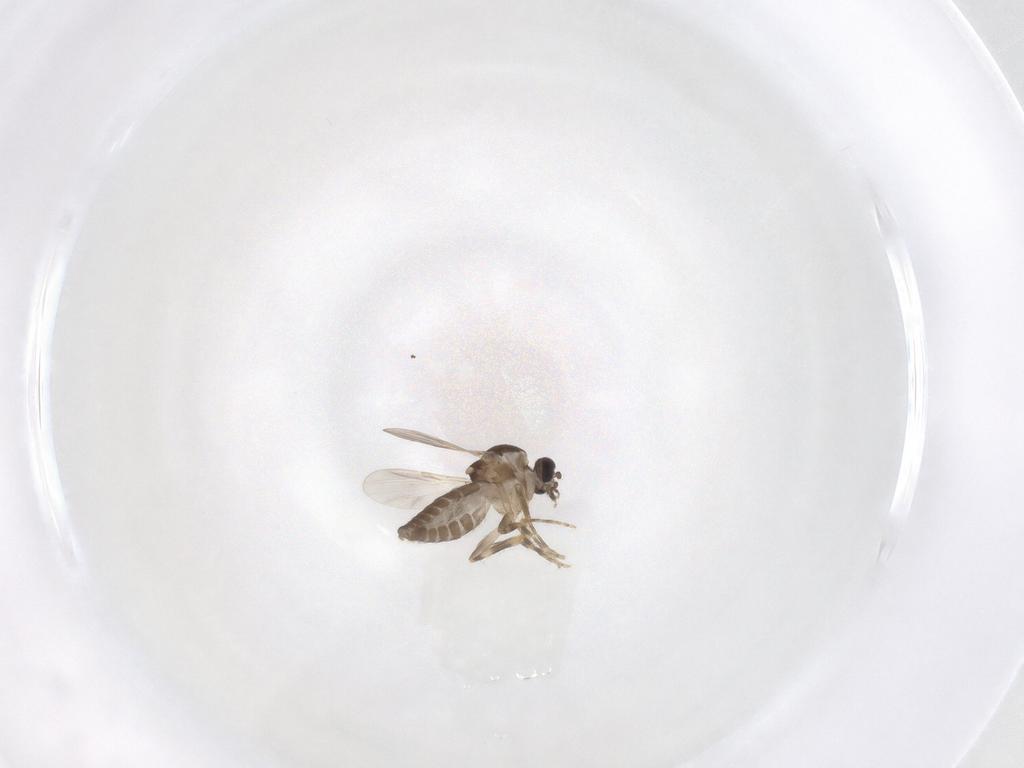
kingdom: Animalia
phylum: Arthropoda
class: Insecta
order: Diptera
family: Ceratopogonidae
